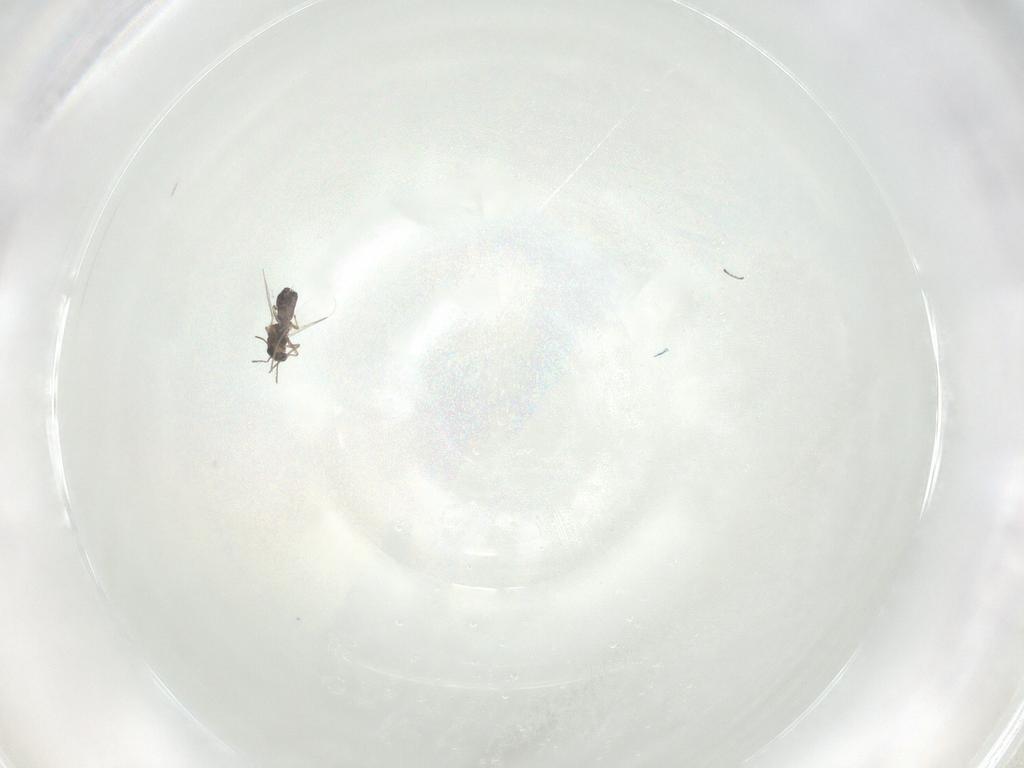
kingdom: Animalia
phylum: Arthropoda
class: Insecta
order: Diptera
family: Chironomidae
